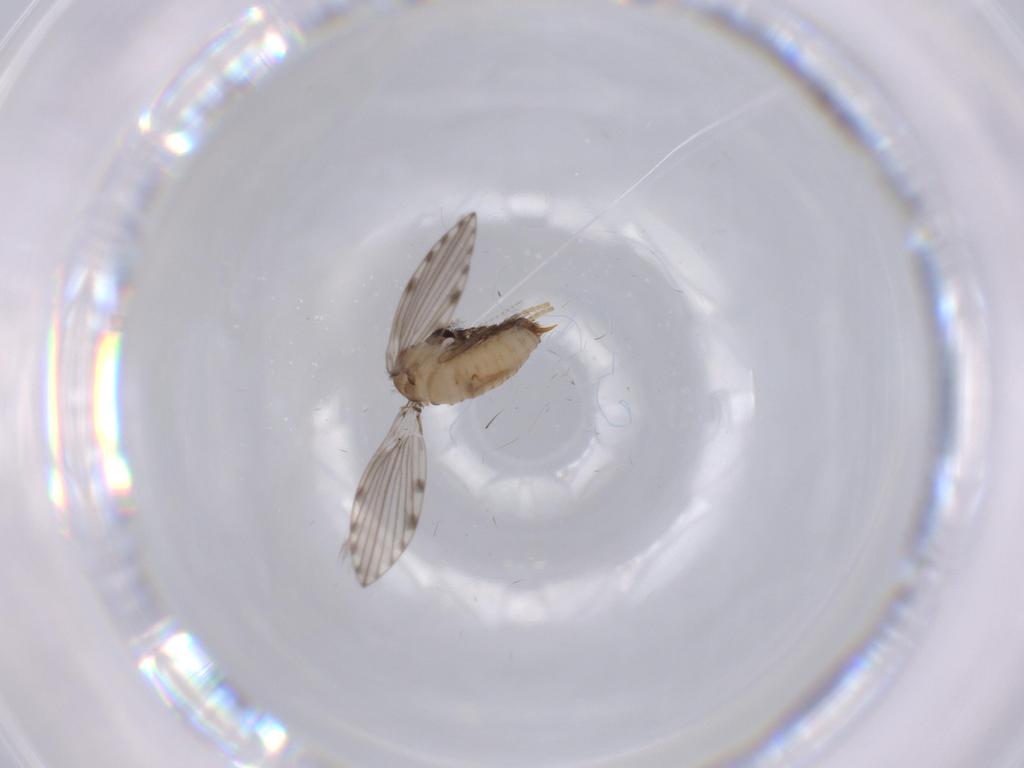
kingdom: Animalia
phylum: Arthropoda
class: Insecta
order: Diptera
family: Psychodidae
